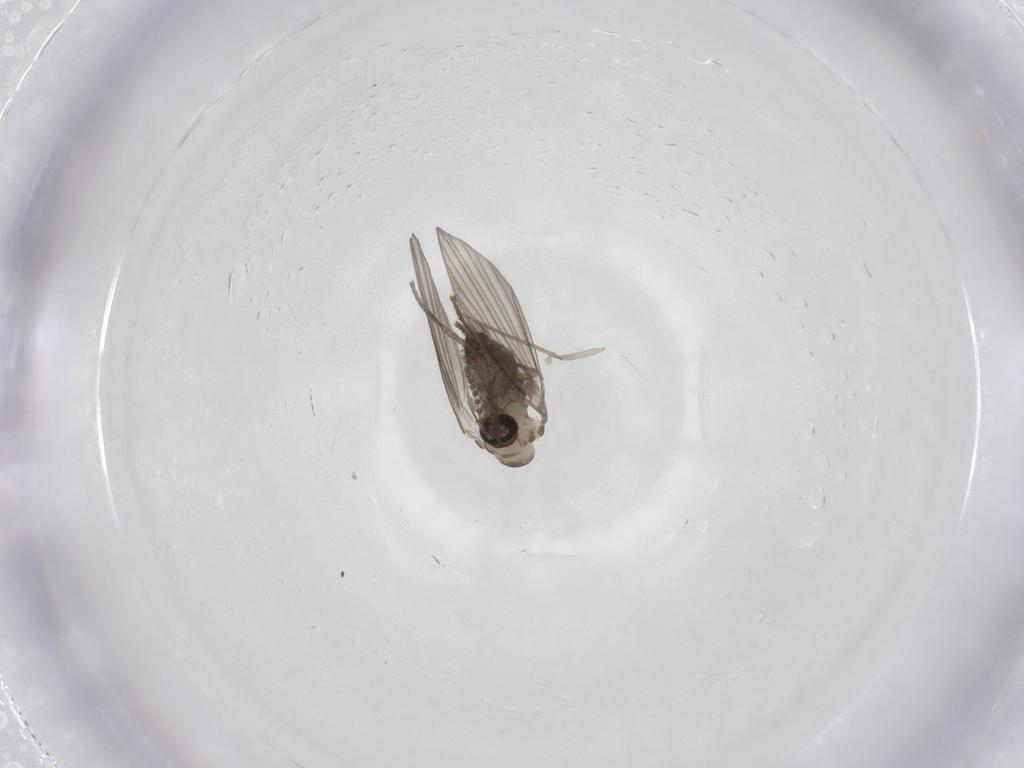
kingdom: Animalia
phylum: Arthropoda
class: Insecta
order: Diptera
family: Psychodidae
